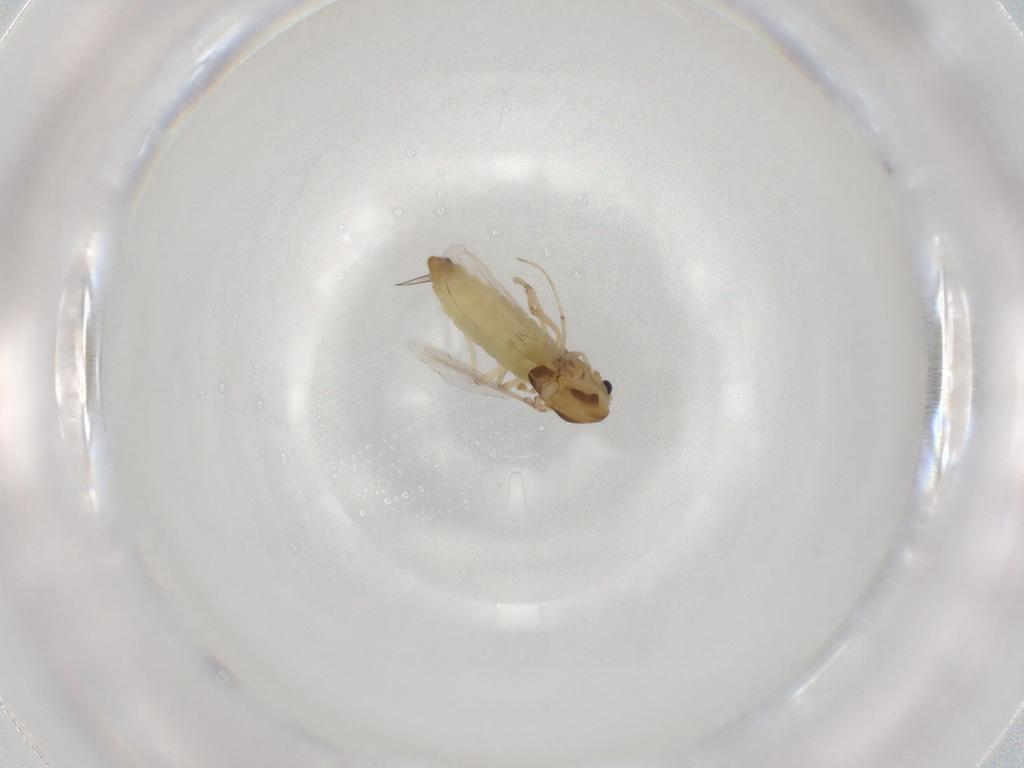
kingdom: Animalia
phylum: Arthropoda
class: Insecta
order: Diptera
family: Chironomidae
